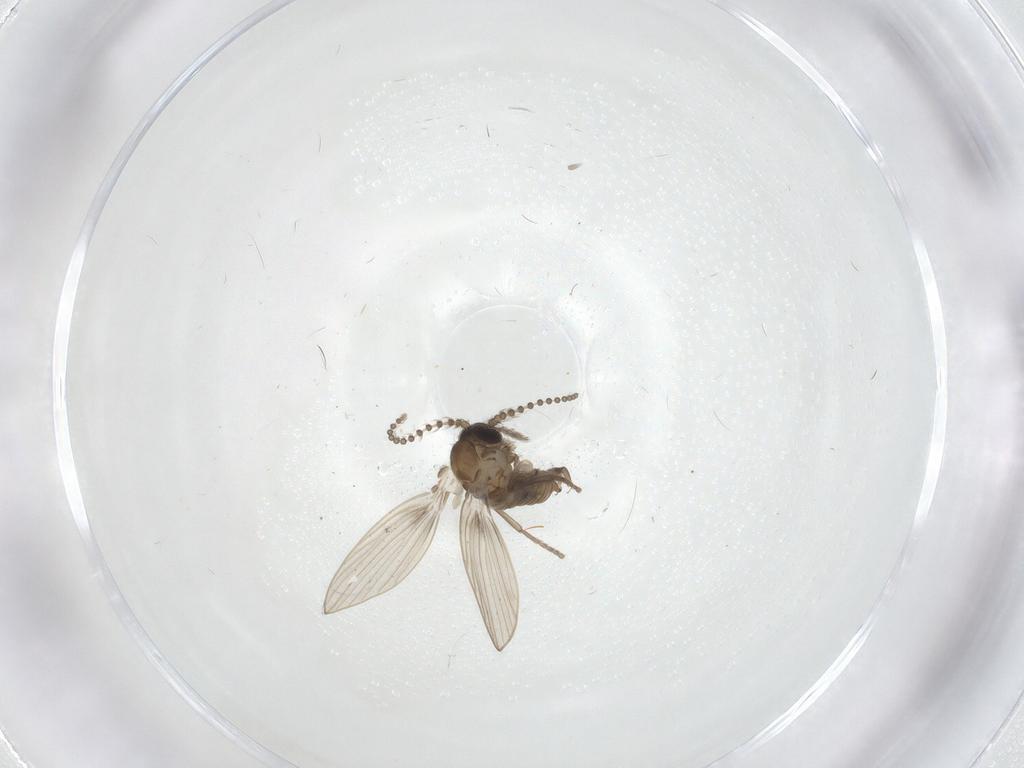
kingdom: Animalia
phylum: Arthropoda
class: Insecta
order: Diptera
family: Phoridae
